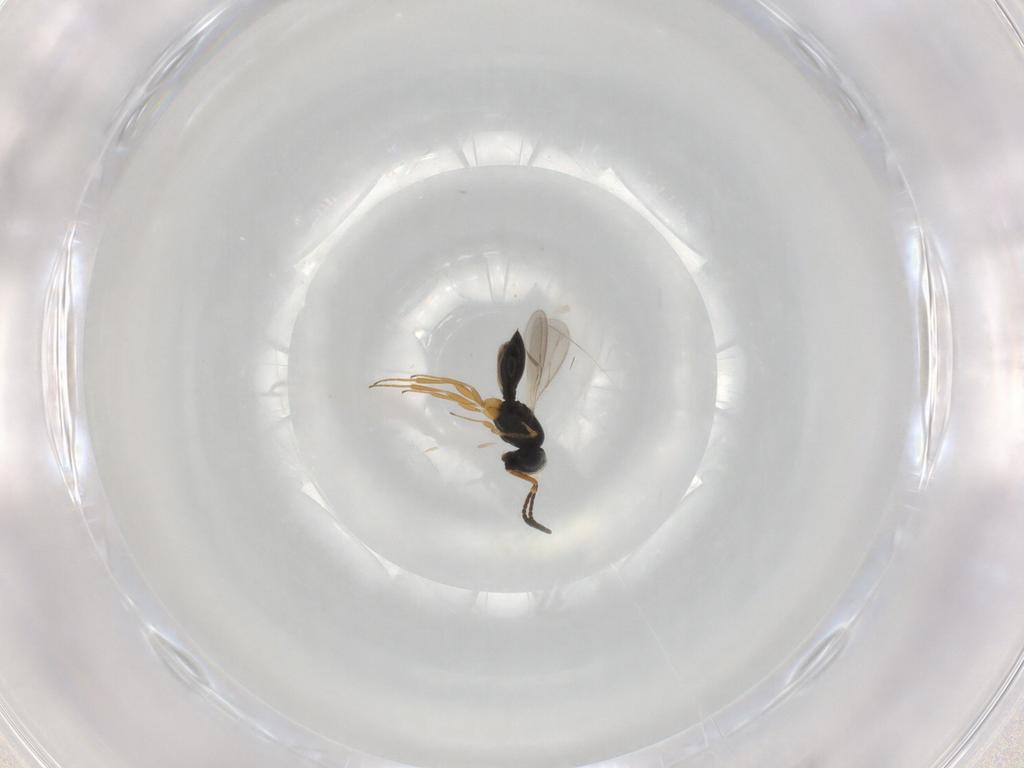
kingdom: Animalia
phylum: Arthropoda
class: Insecta
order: Hymenoptera
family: Scelionidae
